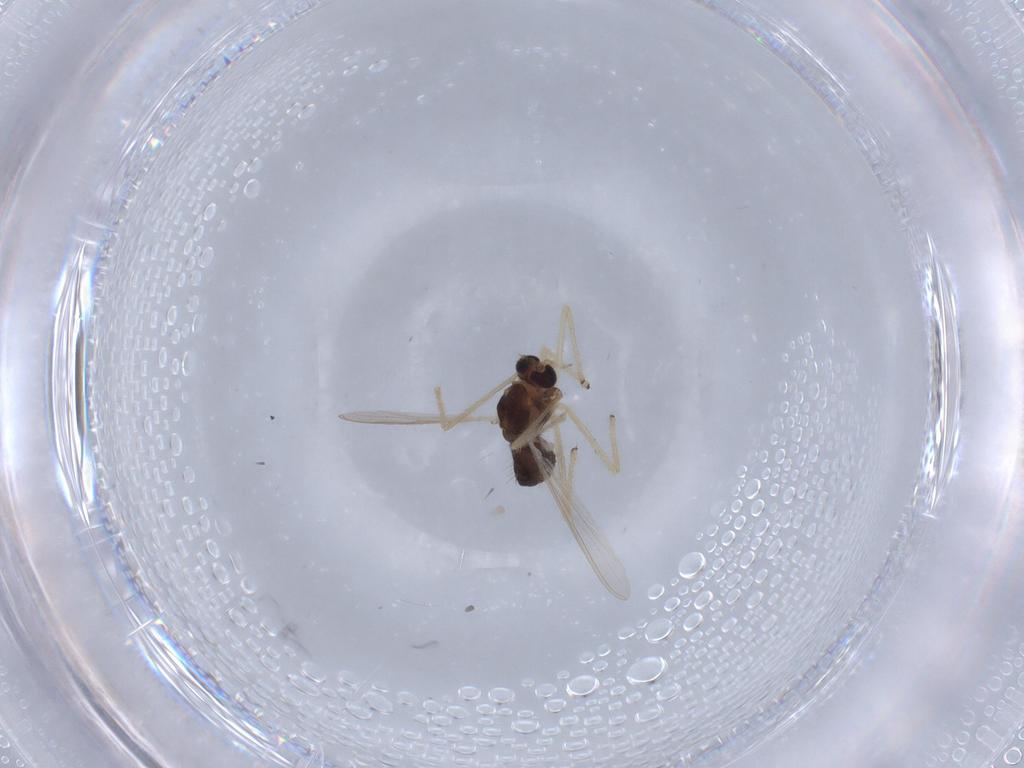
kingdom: Animalia
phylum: Arthropoda
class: Insecta
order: Diptera
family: Chironomidae
